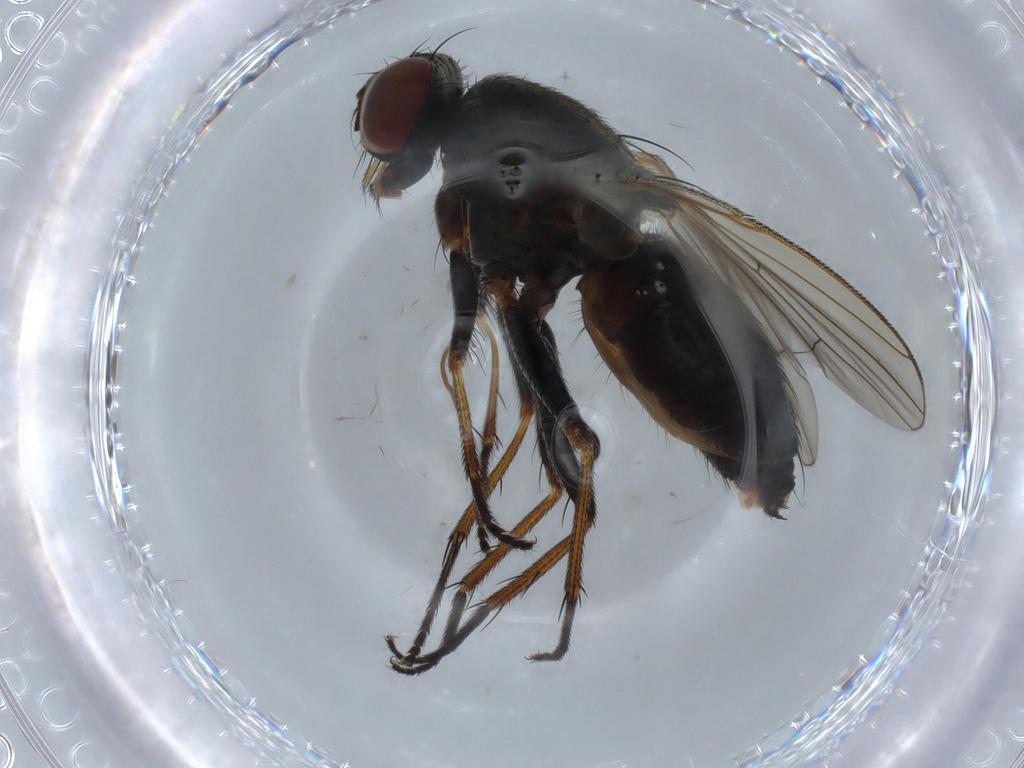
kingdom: Animalia
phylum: Arthropoda
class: Insecta
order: Diptera
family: Muscidae
